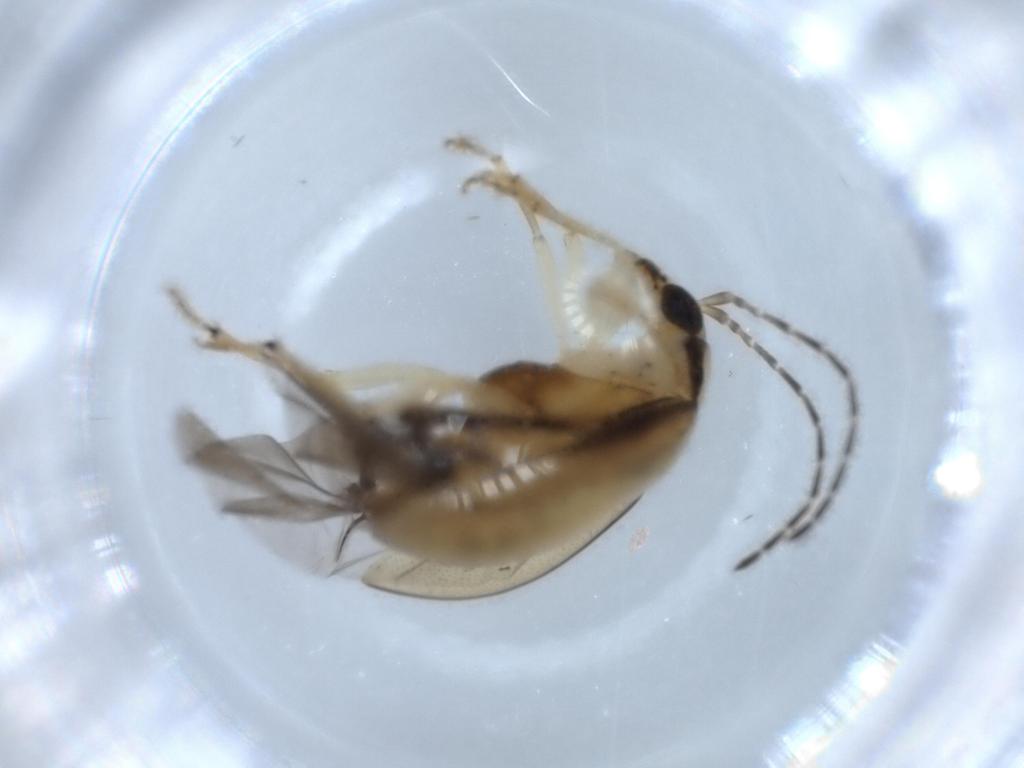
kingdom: Animalia
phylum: Arthropoda
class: Insecta
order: Coleoptera
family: Chrysomelidae
